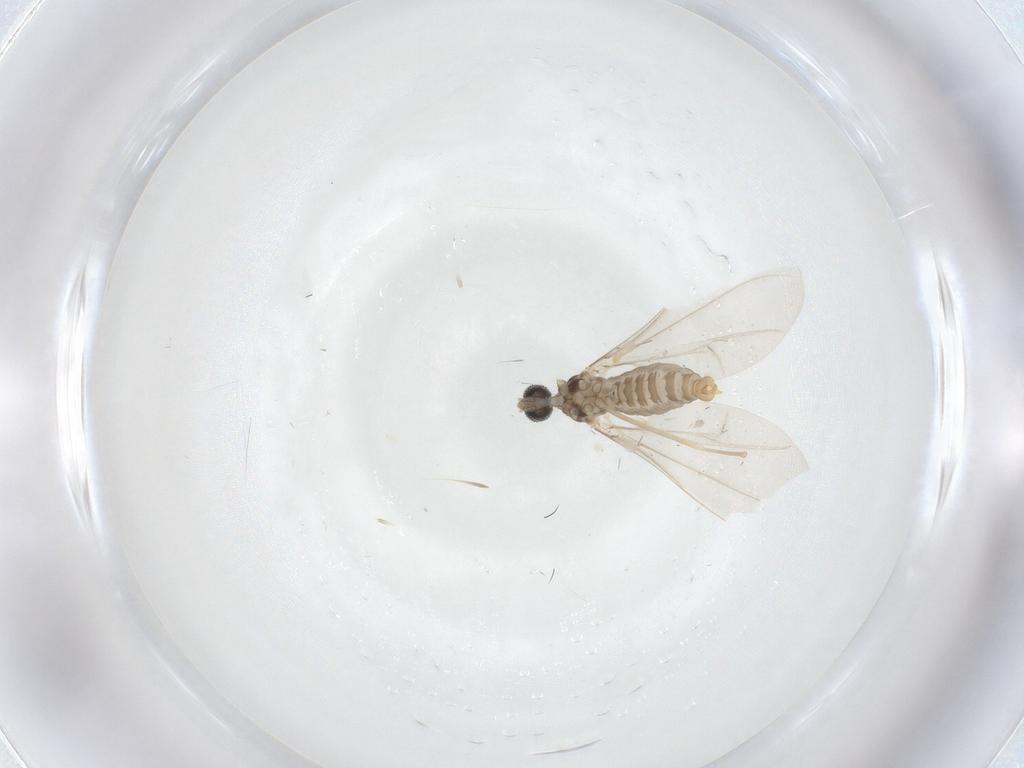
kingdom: Animalia
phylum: Arthropoda
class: Insecta
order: Diptera
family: Cecidomyiidae
